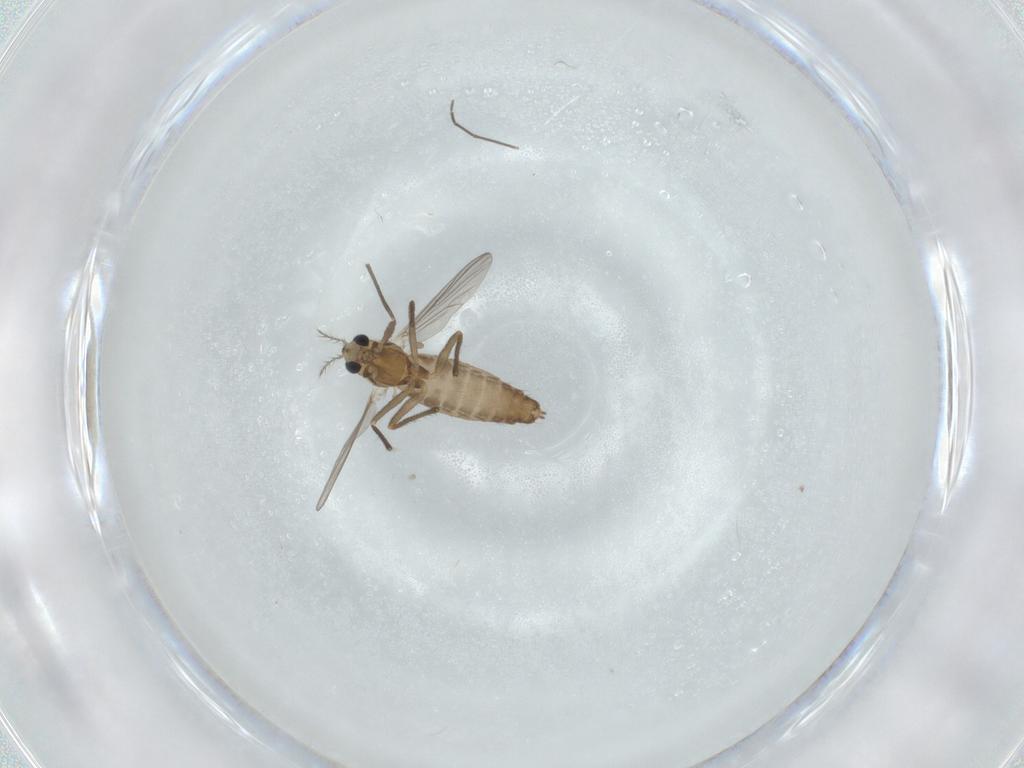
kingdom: Animalia
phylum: Arthropoda
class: Insecta
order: Diptera
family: Chironomidae
